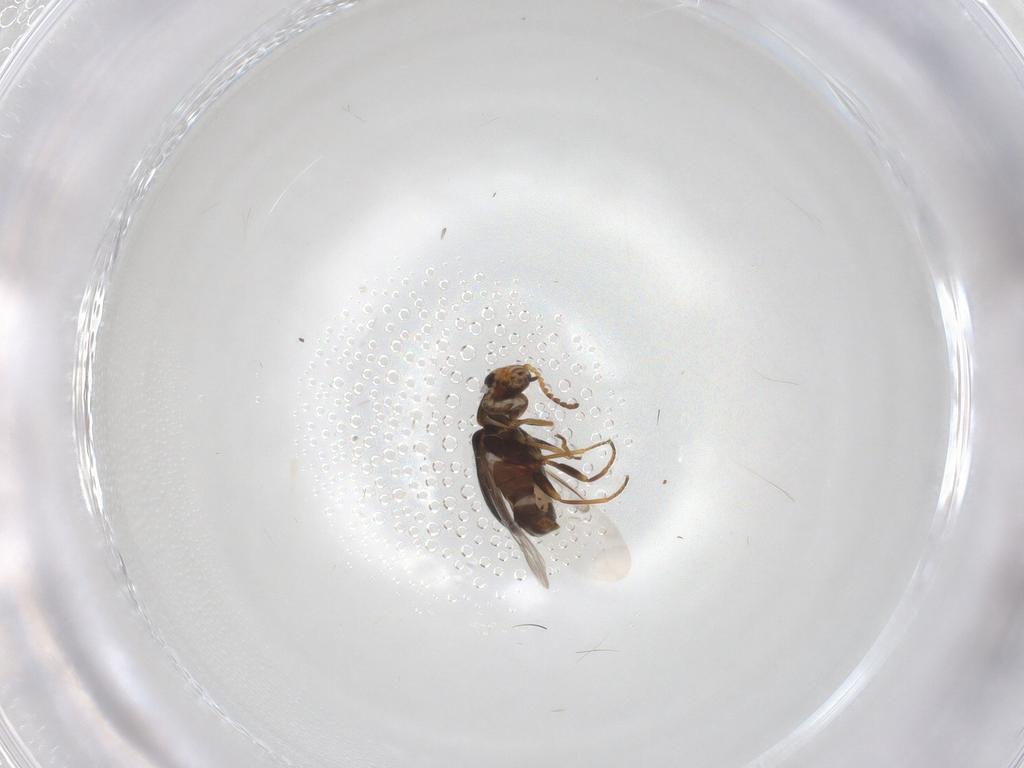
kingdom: Animalia
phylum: Arthropoda
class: Insecta
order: Coleoptera
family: Melyridae
